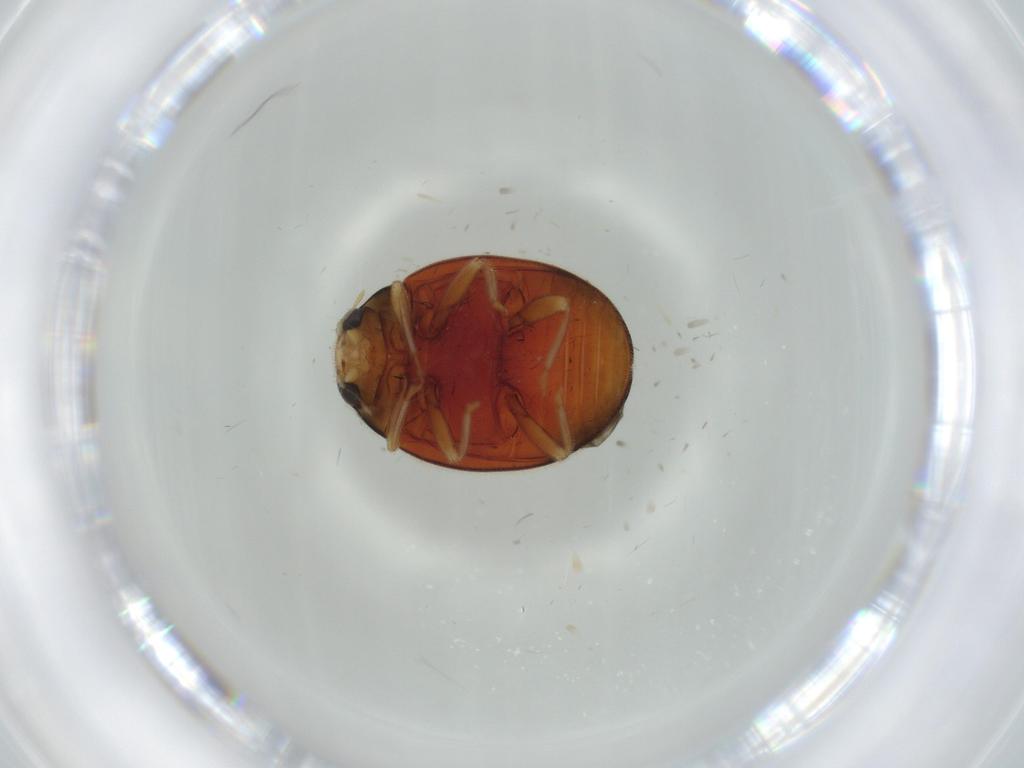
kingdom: Animalia
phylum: Arthropoda
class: Insecta
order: Coleoptera
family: Coccinellidae
